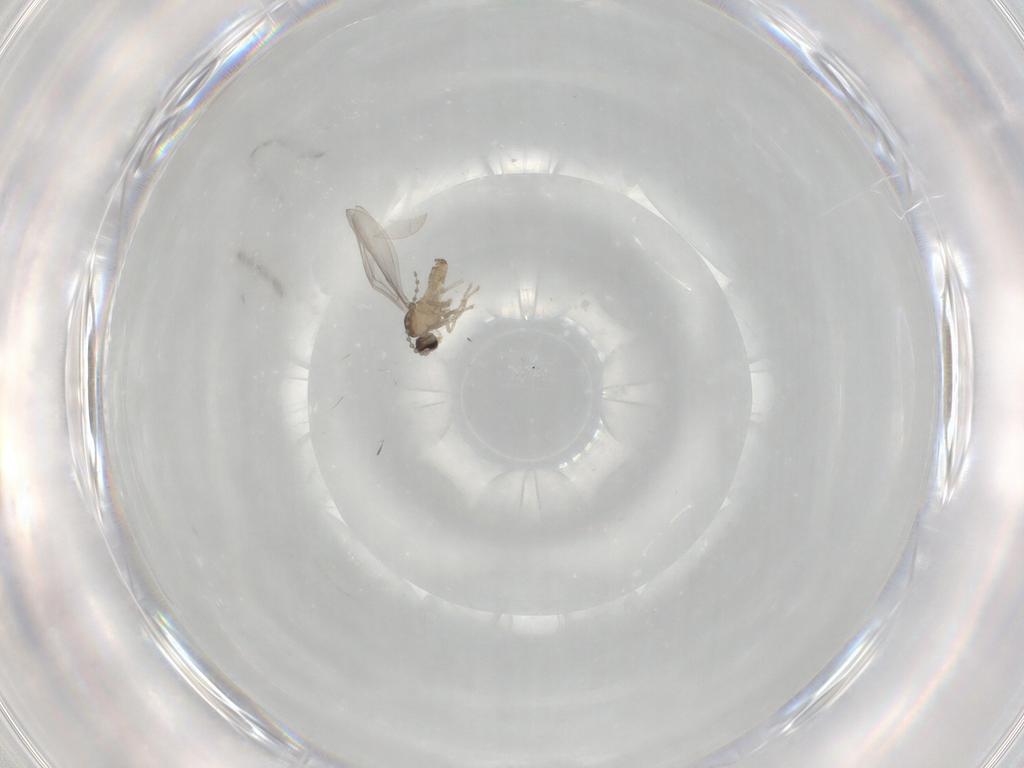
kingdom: Animalia
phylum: Arthropoda
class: Insecta
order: Diptera
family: Cecidomyiidae
